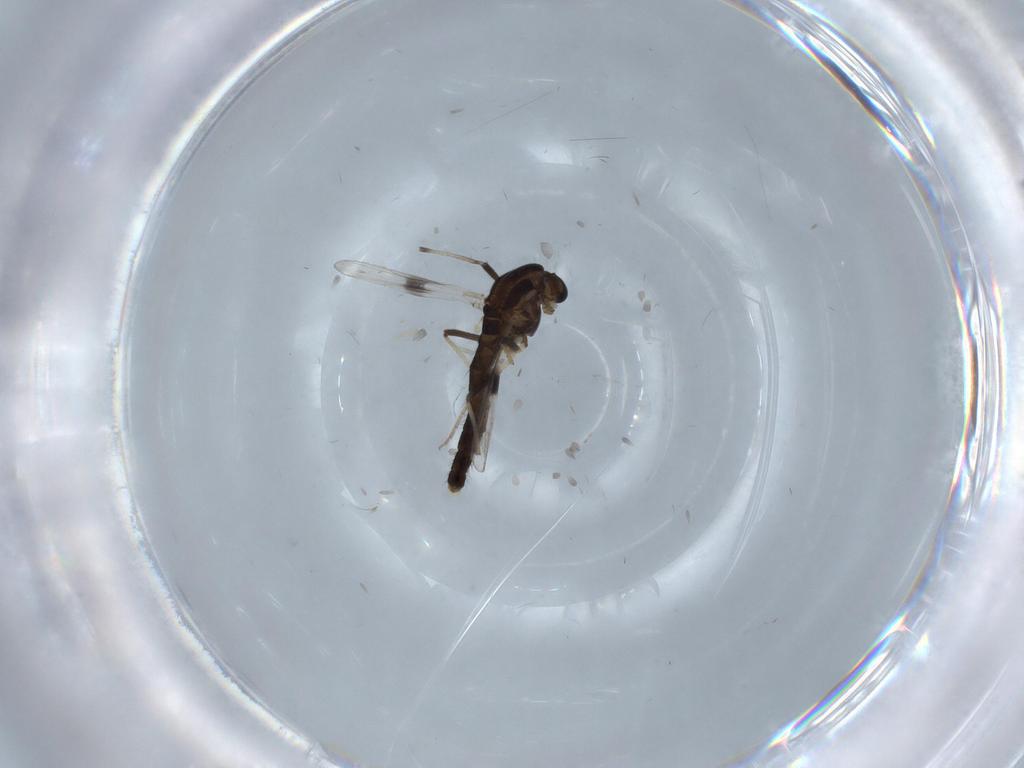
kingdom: Animalia
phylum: Arthropoda
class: Insecta
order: Diptera
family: Chironomidae
